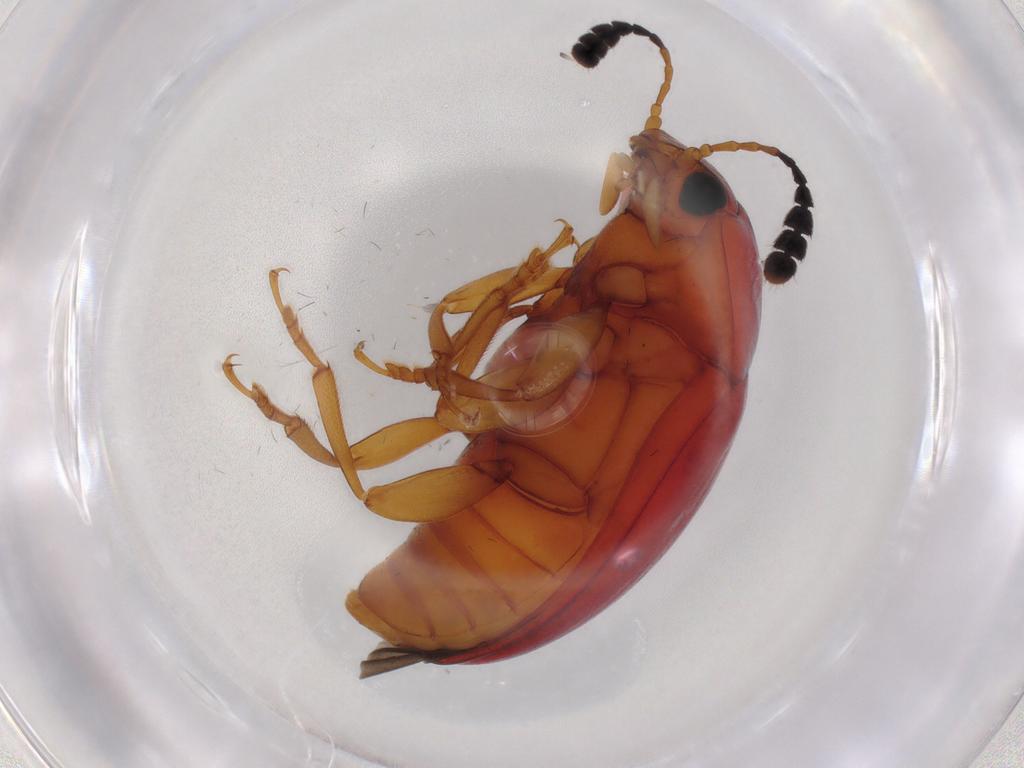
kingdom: Animalia
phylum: Arthropoda
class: Insecta
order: Coleoptera
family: Erotylidae
